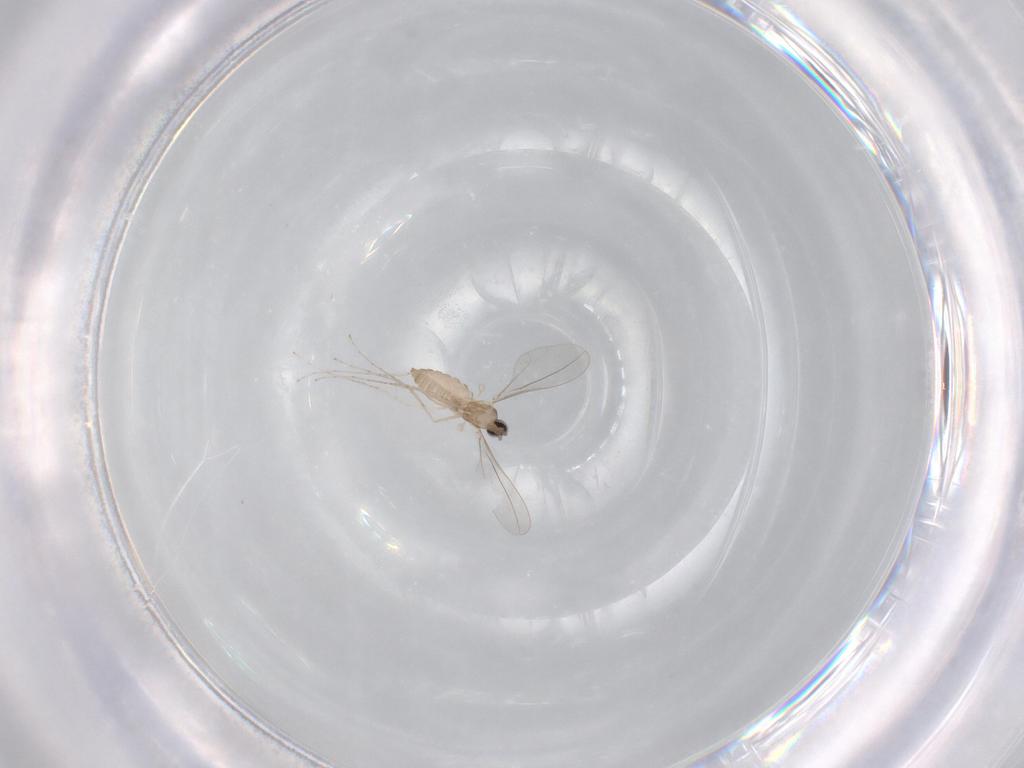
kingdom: Animalia
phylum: Arthropoda
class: Insecta
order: Diptera
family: Cecidomyiidae
